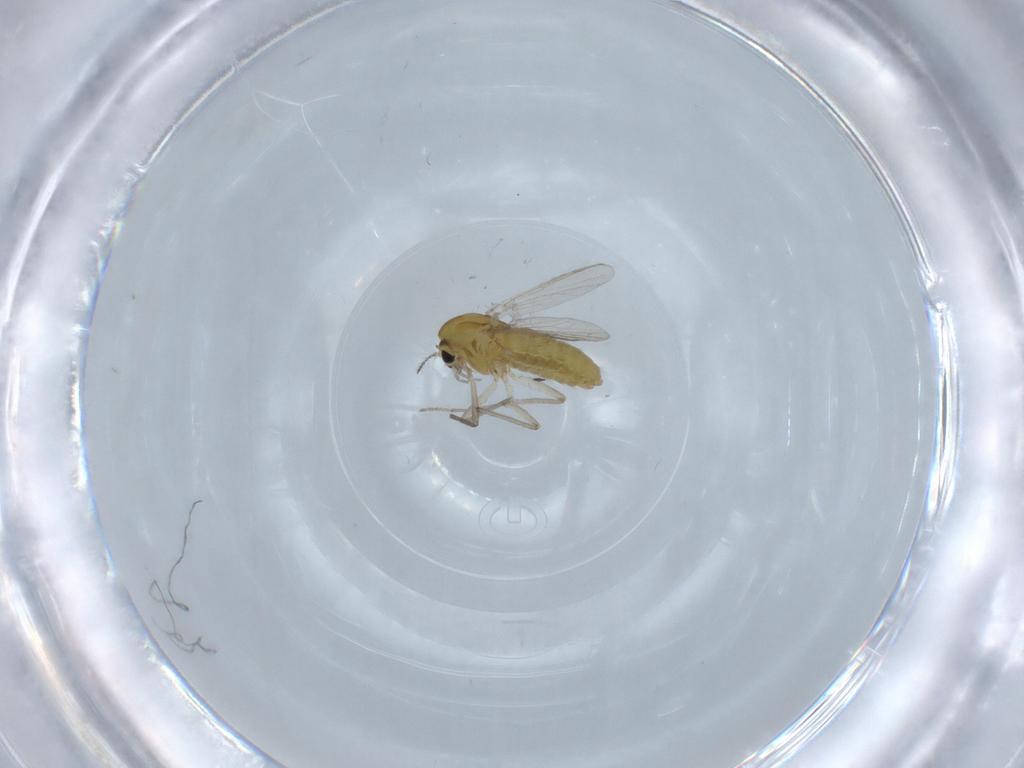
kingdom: Animalia
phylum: Arthropoda
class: Insecta
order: Diptera
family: Chironomidae
